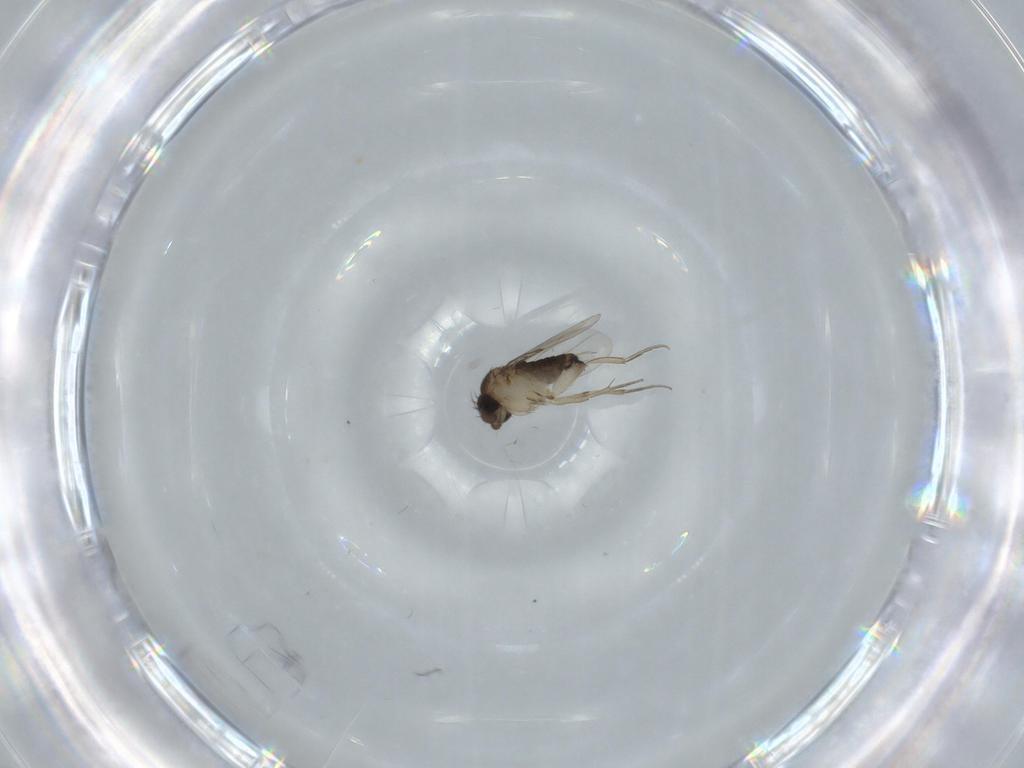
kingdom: Animalia
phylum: Arthropoda
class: Insecta
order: Diptera
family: Phoridae
